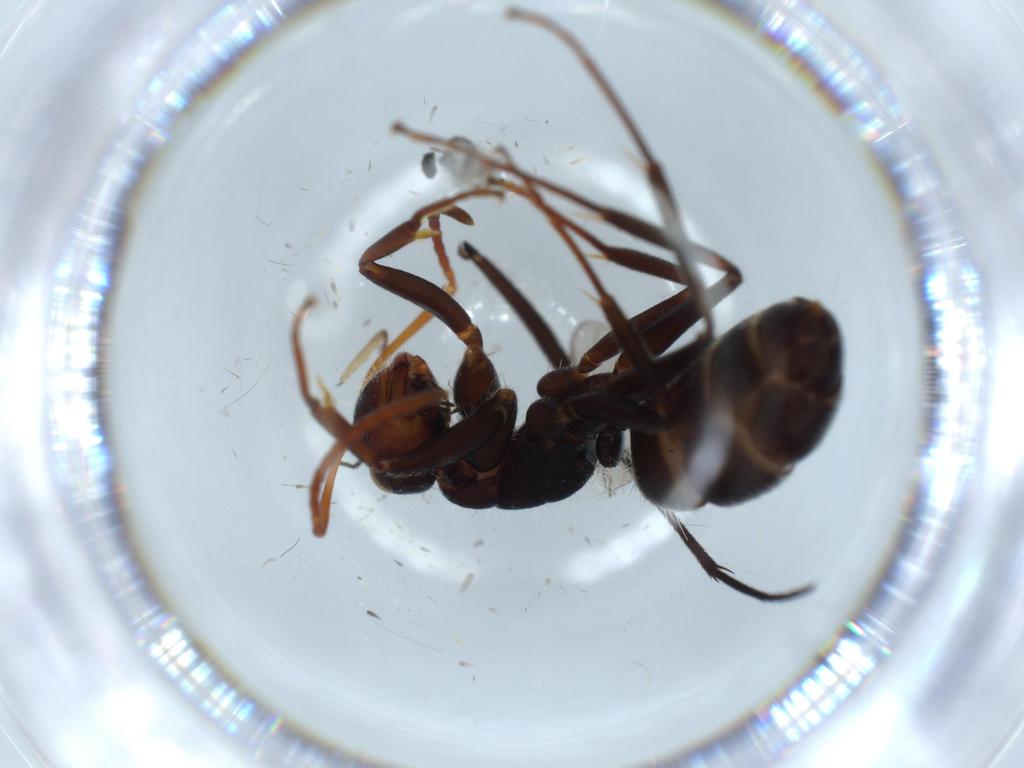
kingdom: Animalia
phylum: Arthropoda
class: Insecta
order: Hymenoptera
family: Formicidae
